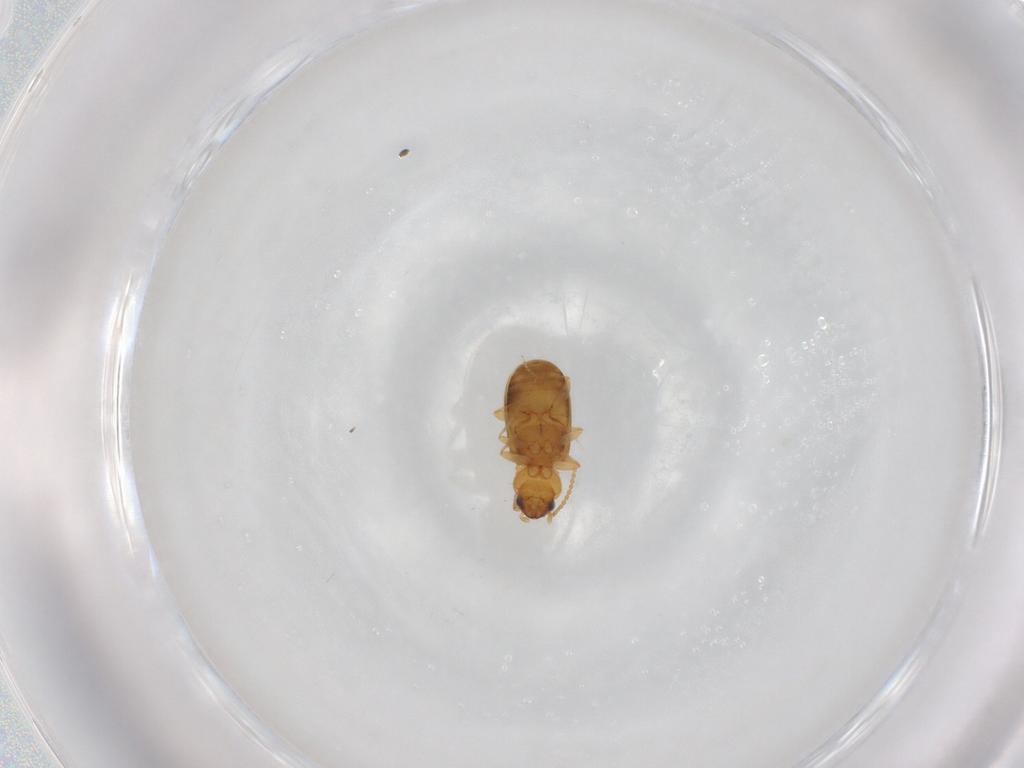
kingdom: Animalia
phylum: Arthropoda
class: Insecta
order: Coleoptera
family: Carabidae
